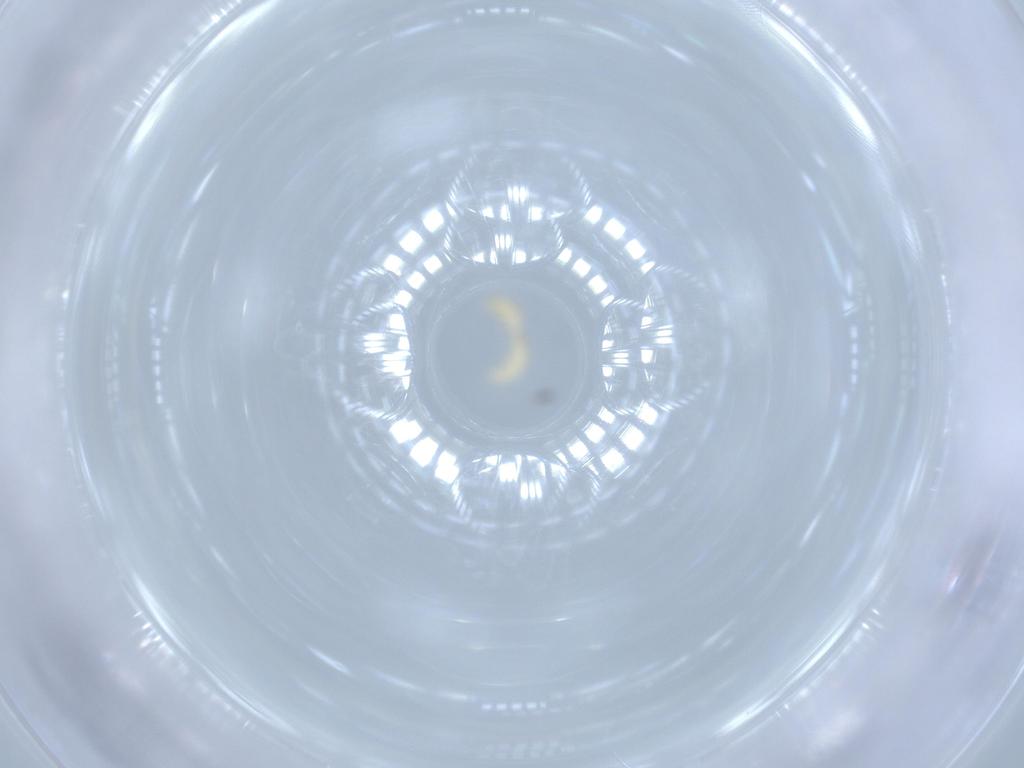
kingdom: Animalia
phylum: Arthropoda
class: Insecta
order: Coleoptera
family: Cantharidae
